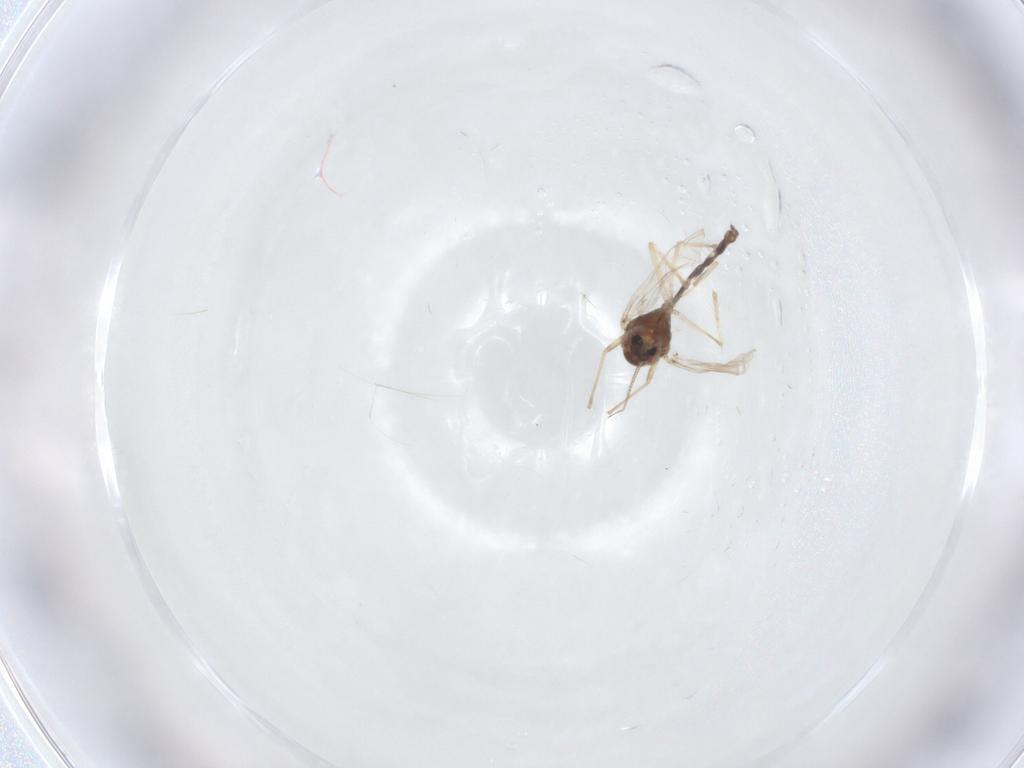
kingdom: Animalia
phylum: Arthropoda
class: Insecta
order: Diptera
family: Chironomidae
